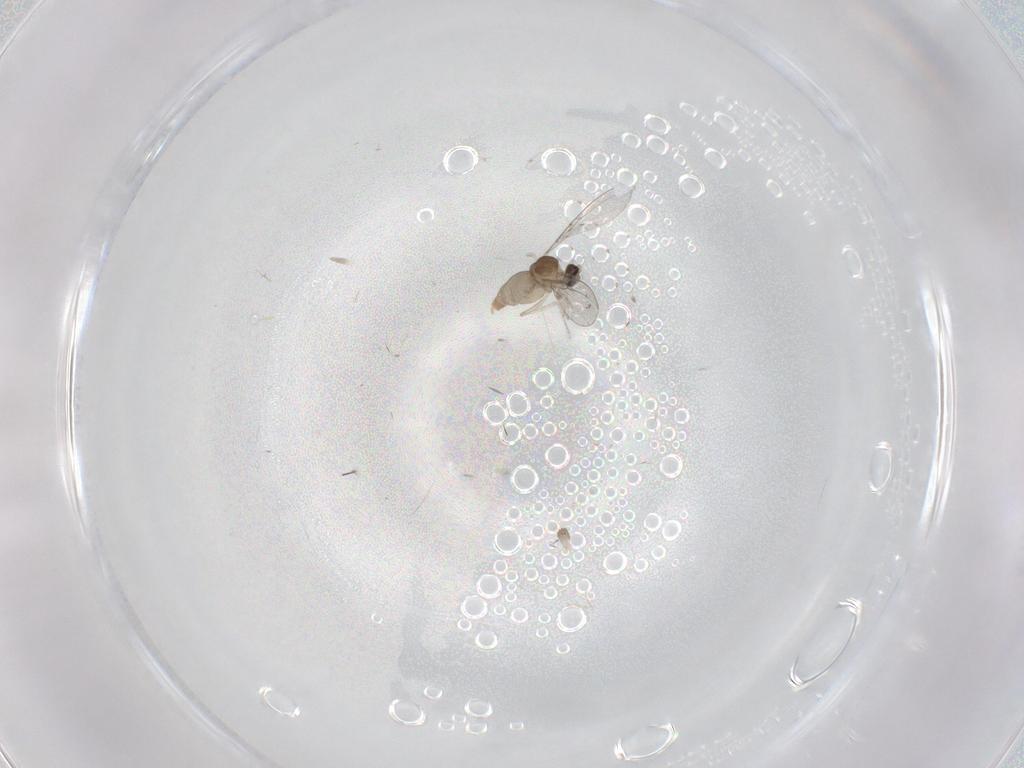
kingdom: Animalia
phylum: Arthropoda
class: Insecta
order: Diptera
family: Cecidomyiidae
